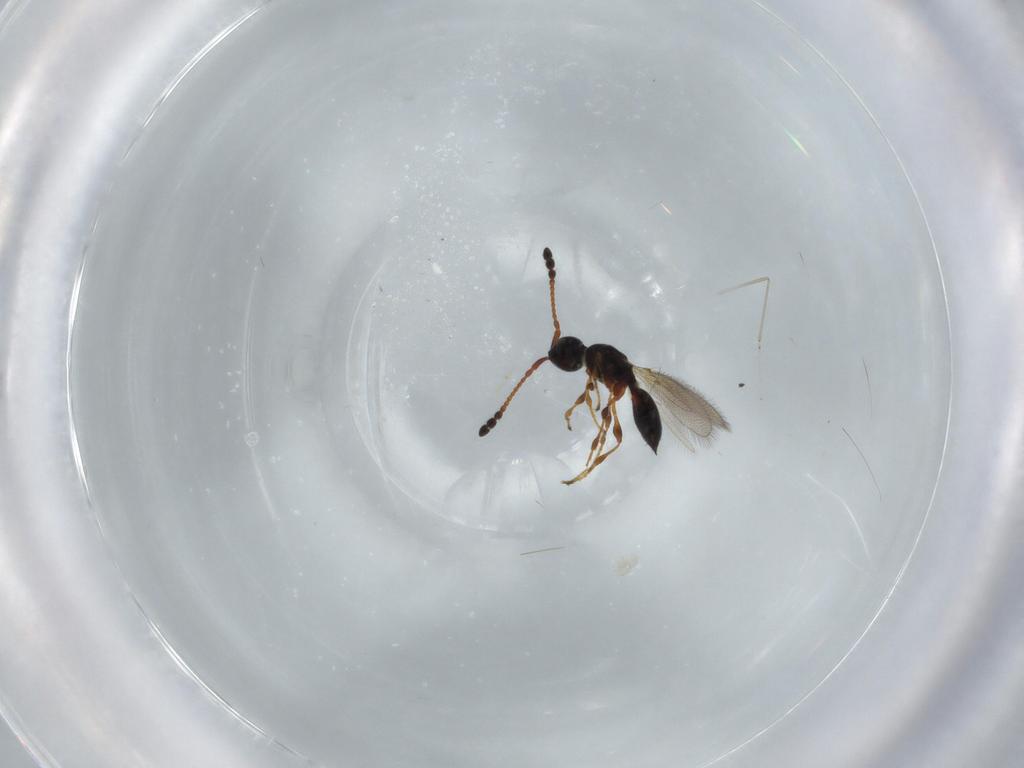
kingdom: Animalia
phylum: Arthropoda
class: Insecta
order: Hymenoptera
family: Diapriidae
